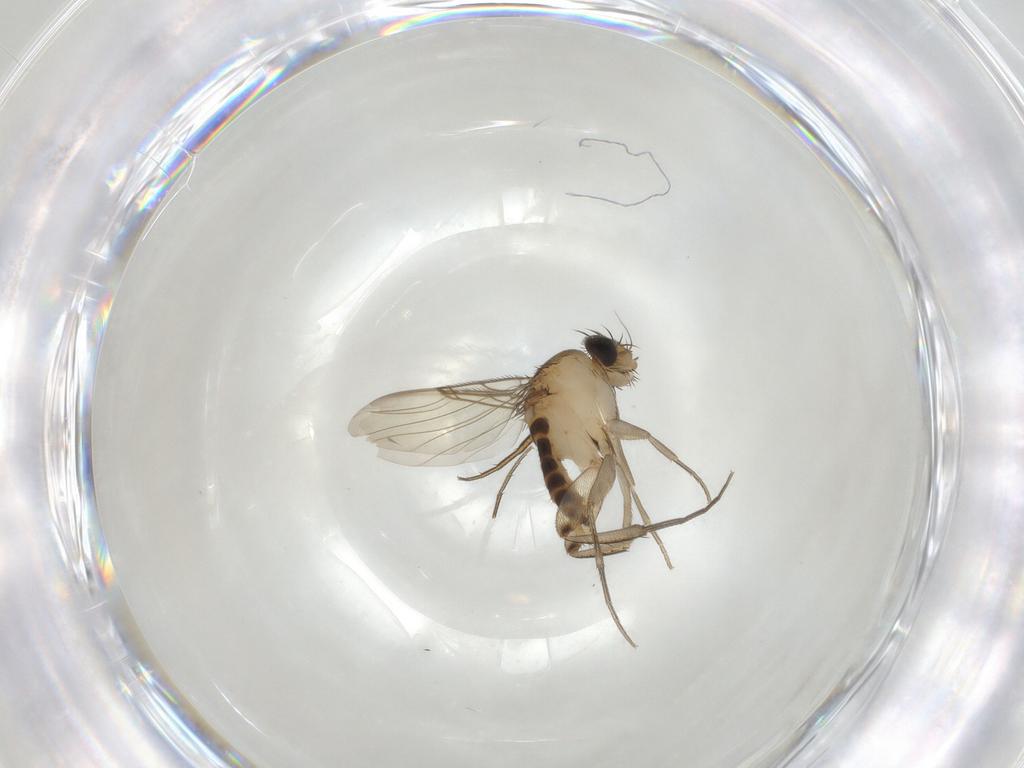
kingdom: Animalia
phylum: Arthropoda
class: Insecta
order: Diptera
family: Phoridae
